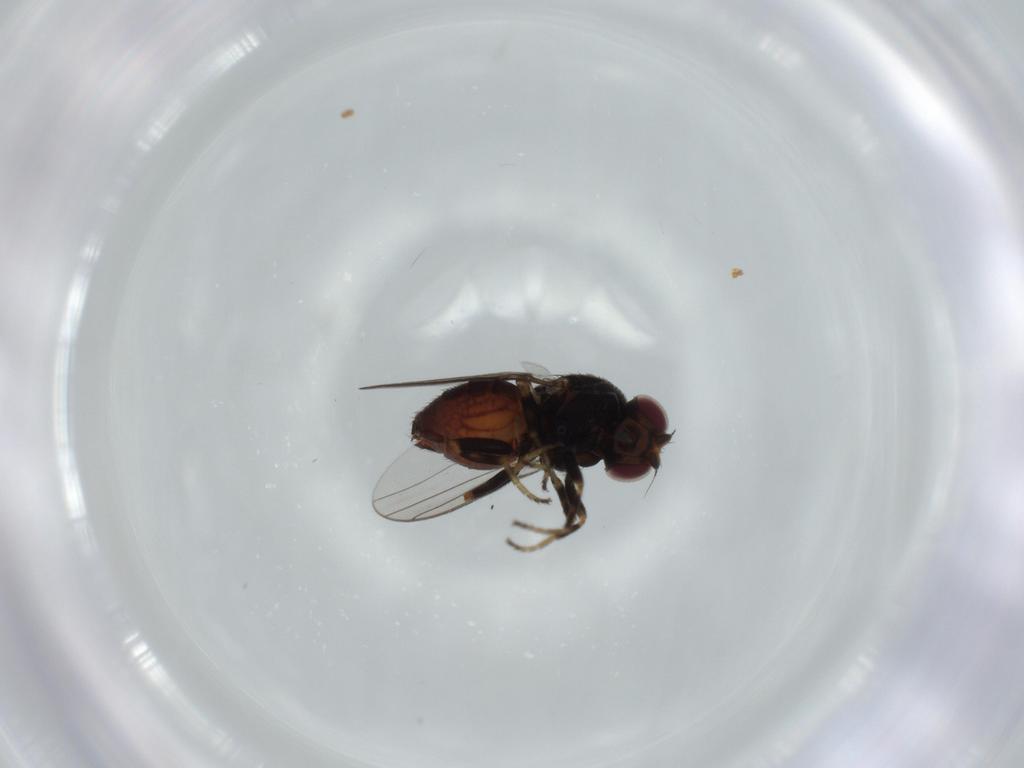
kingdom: Animalia
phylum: Arthropoda
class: Insecta
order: Diptera
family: Chloropidae
